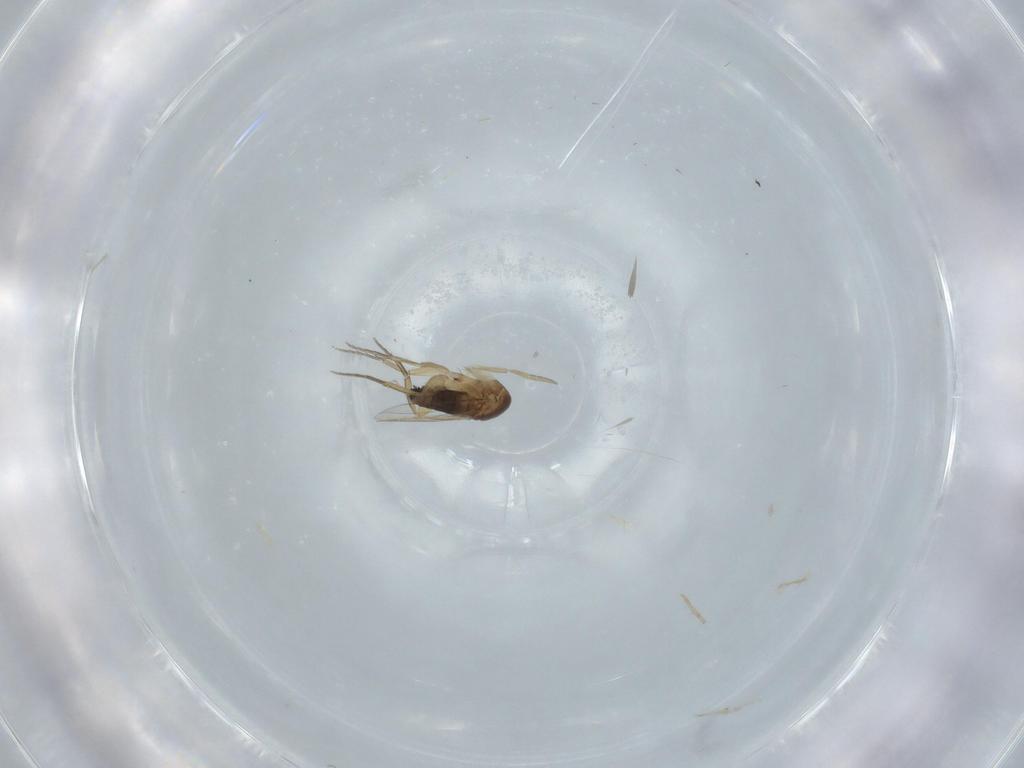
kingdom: Animalia
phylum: Arthropoda
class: Insecta
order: Diptera
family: Phoridae
